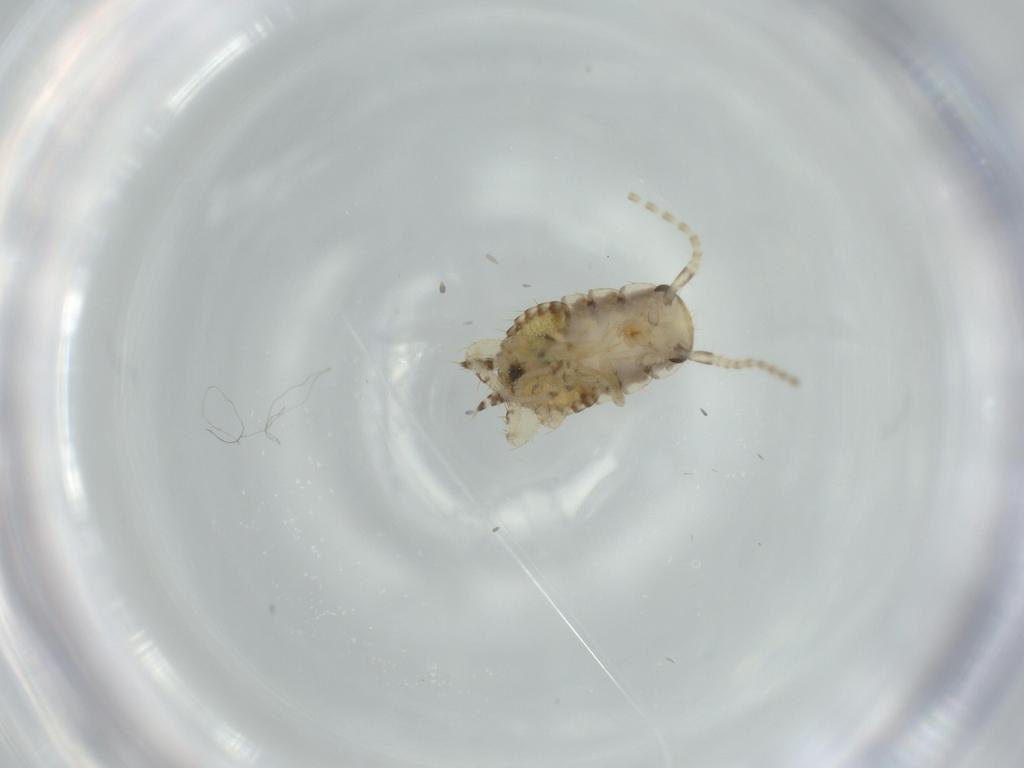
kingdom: Animalia
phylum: Arthropoda
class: Insecta
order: Blattodea
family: Ectobiidae
